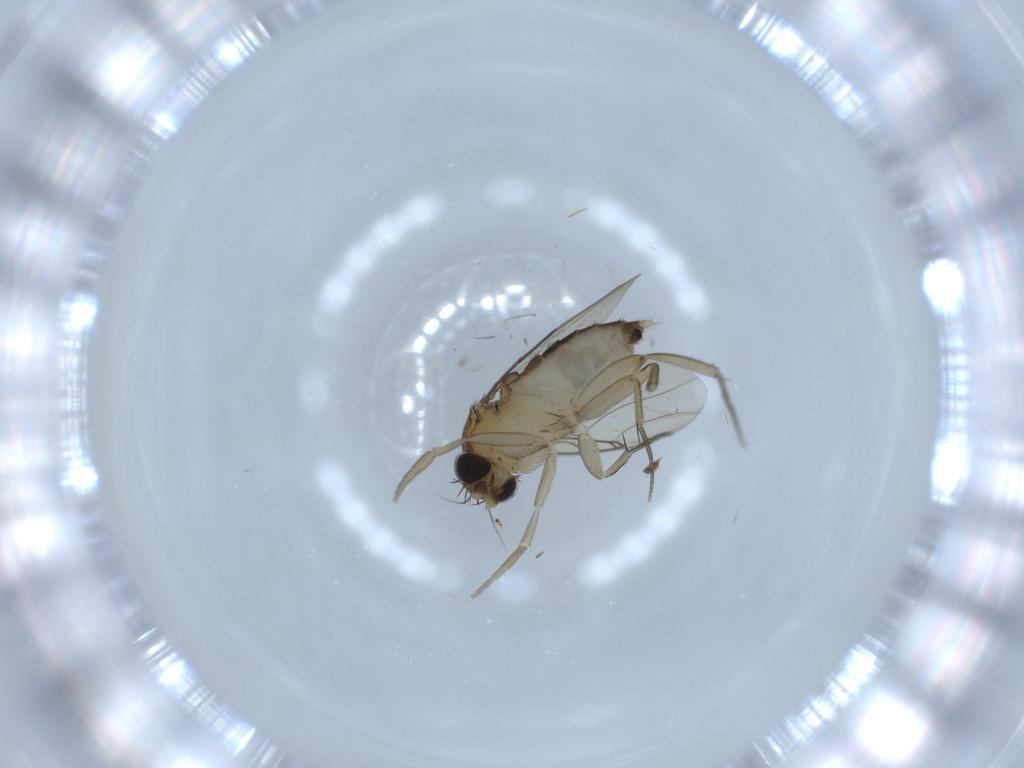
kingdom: Animalia
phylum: Arthropoda
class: Insecta
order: Diptera
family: Phoridae
